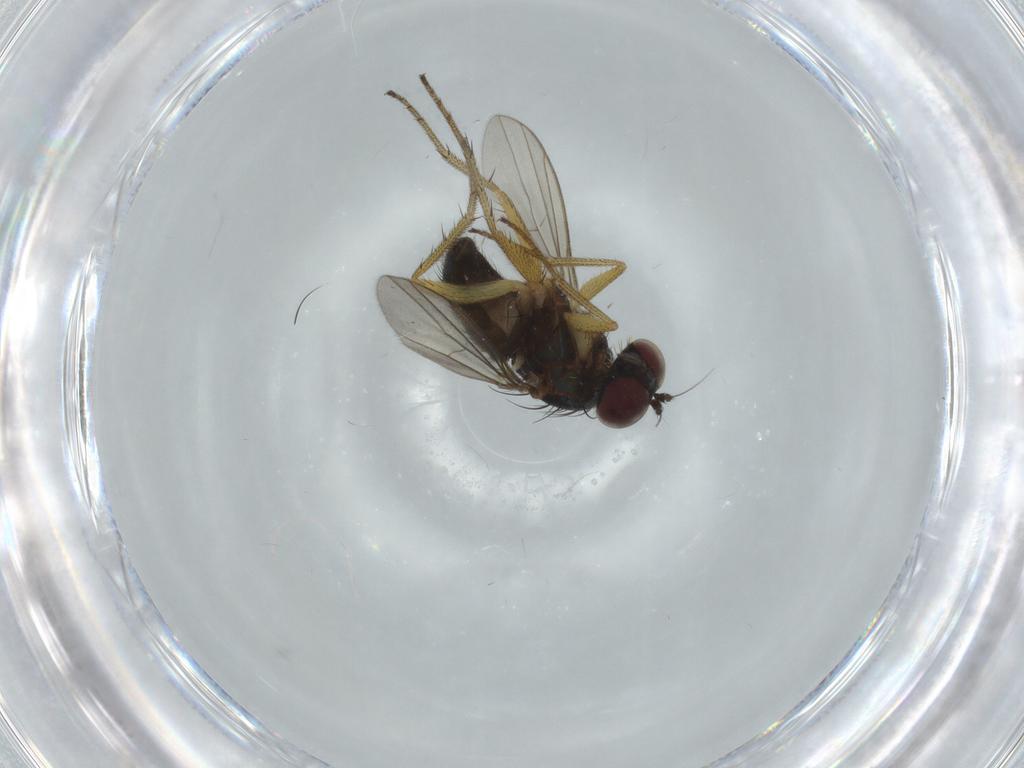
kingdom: Animalia
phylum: Arthropoda
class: Insecta
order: Diptera
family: Dolichopodidae
